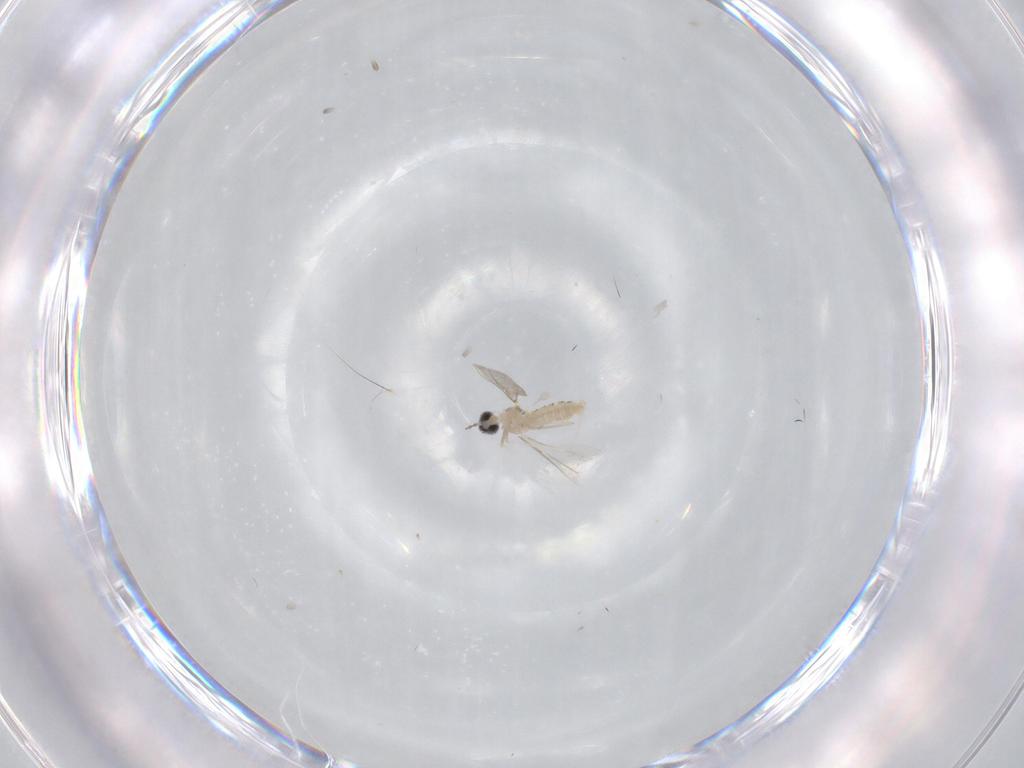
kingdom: Animalia
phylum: Arthropoda
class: Insecta
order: Diptera
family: Cecidomyiidae
